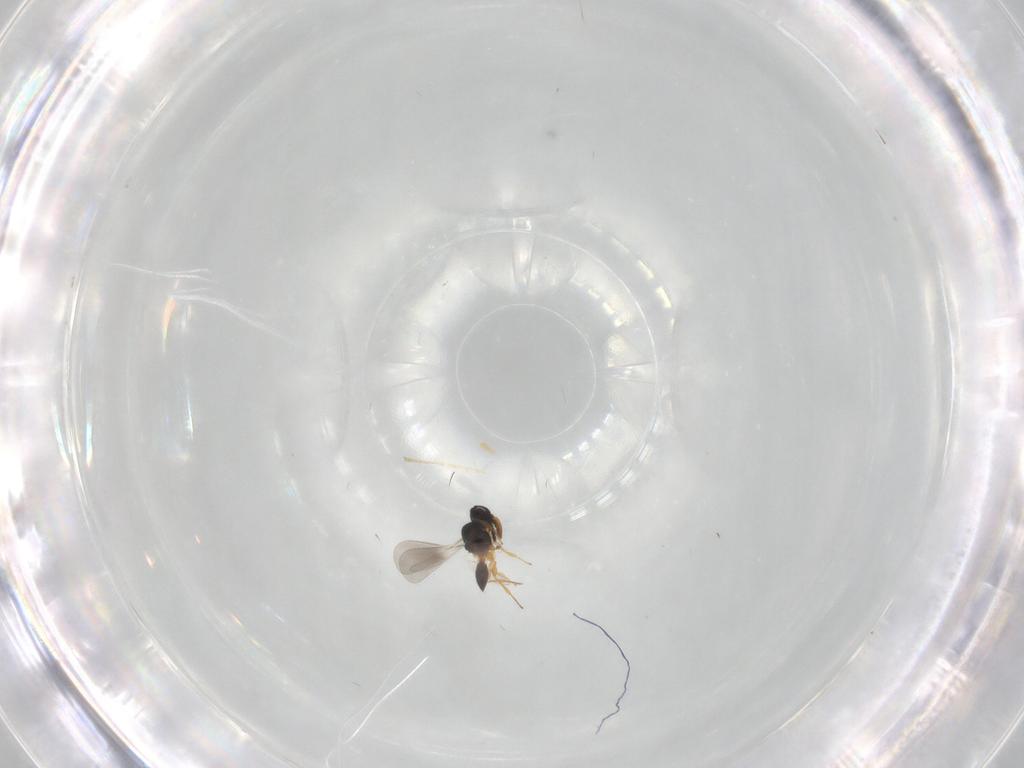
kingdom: Animalia
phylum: Arthropoda
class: Insecta
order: Hymenoptera
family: Platygastridae
